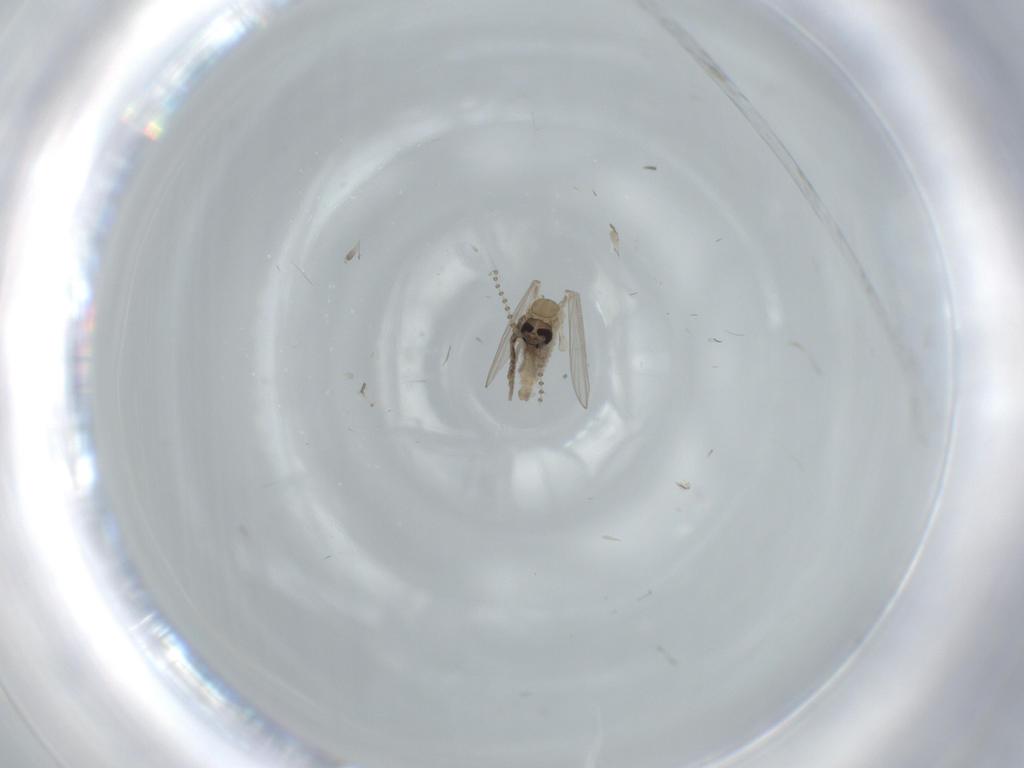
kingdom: Animalia
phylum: Arthropoda
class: Insecta
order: Diptera
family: Psychodidae
